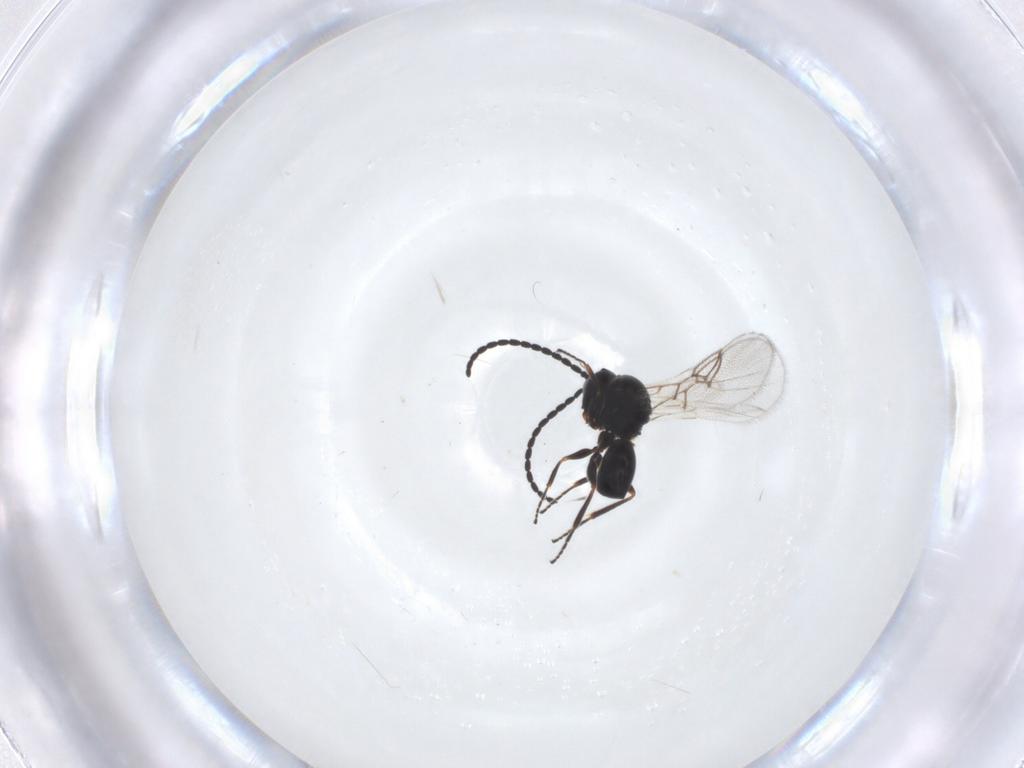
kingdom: Animalia
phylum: Arthropoda
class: Insecta
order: Hymenoptera
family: Figitidae
